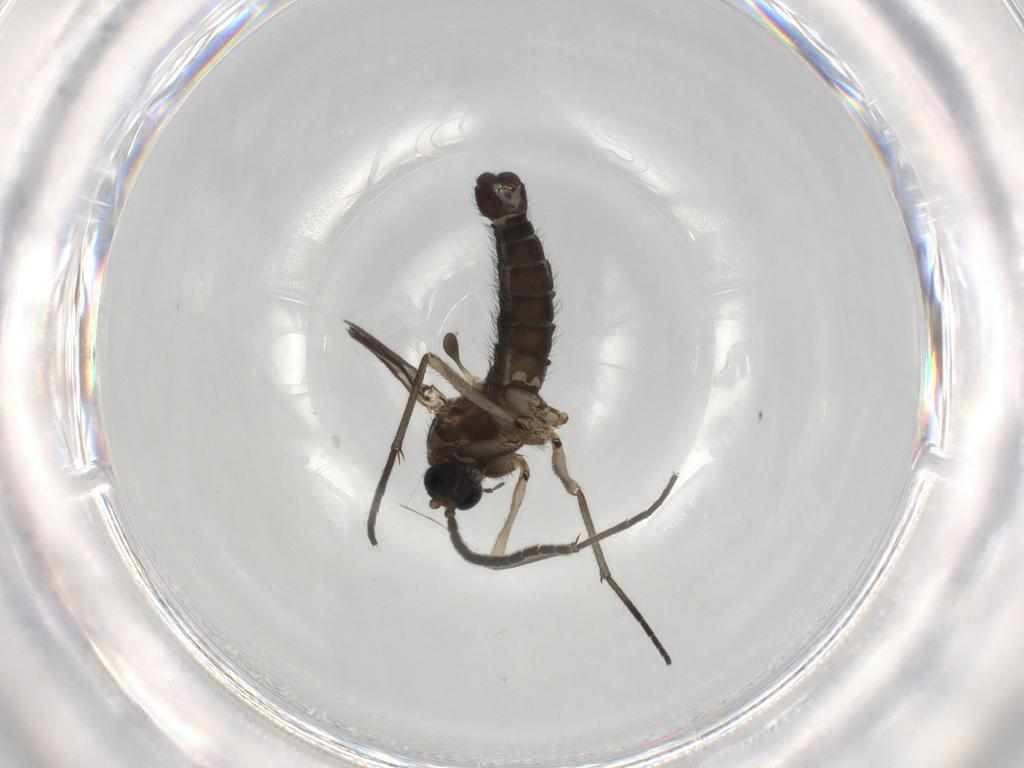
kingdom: Animalia
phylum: Arthropoda
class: Insecta
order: Diptera
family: Sciaridae
